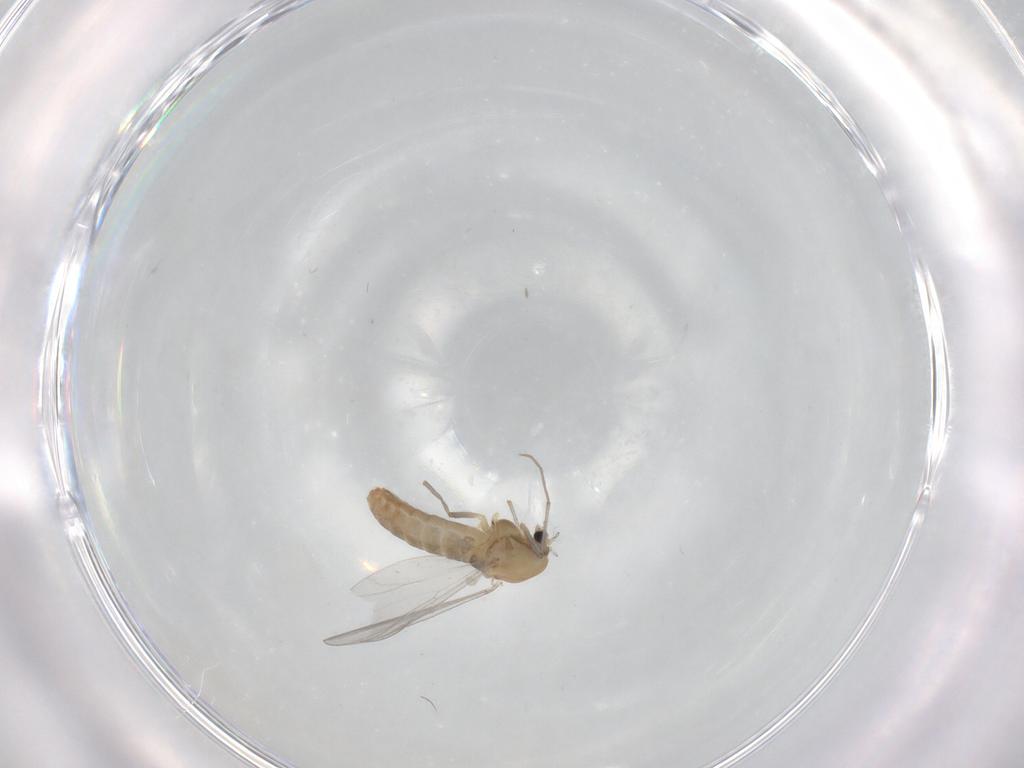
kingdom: Animalia
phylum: Arthropoda
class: Insecta
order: Diptera
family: Chironomidae
